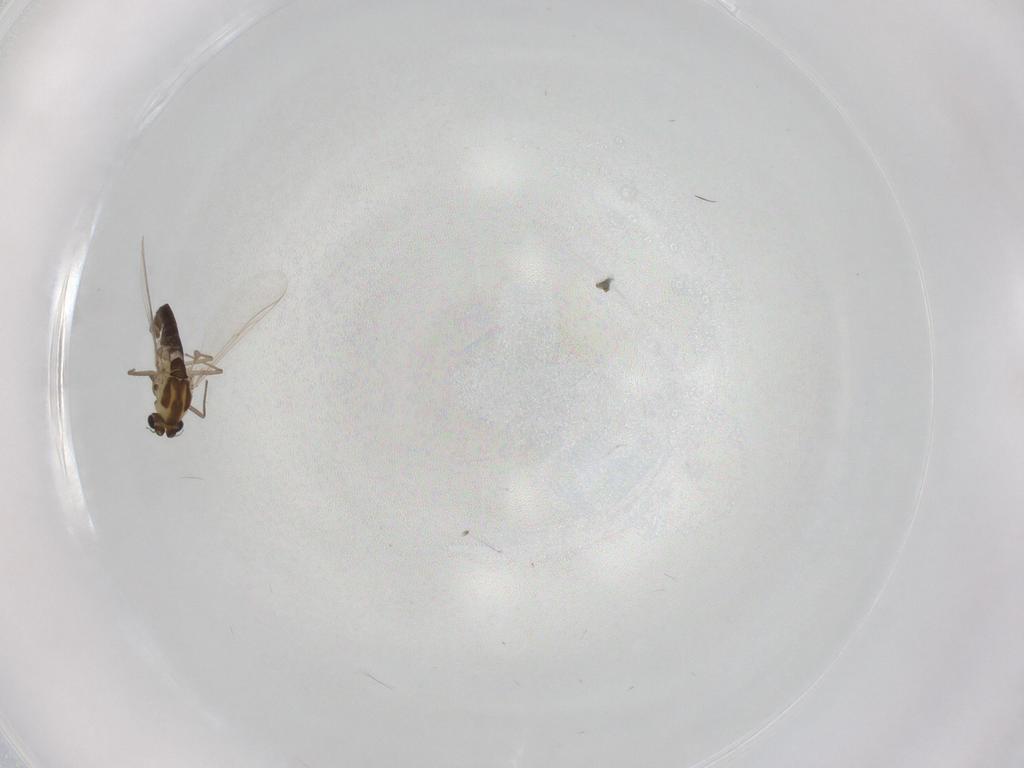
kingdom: Animalia
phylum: Arthropoda
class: Insecta
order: Diptera
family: Chironomidae
